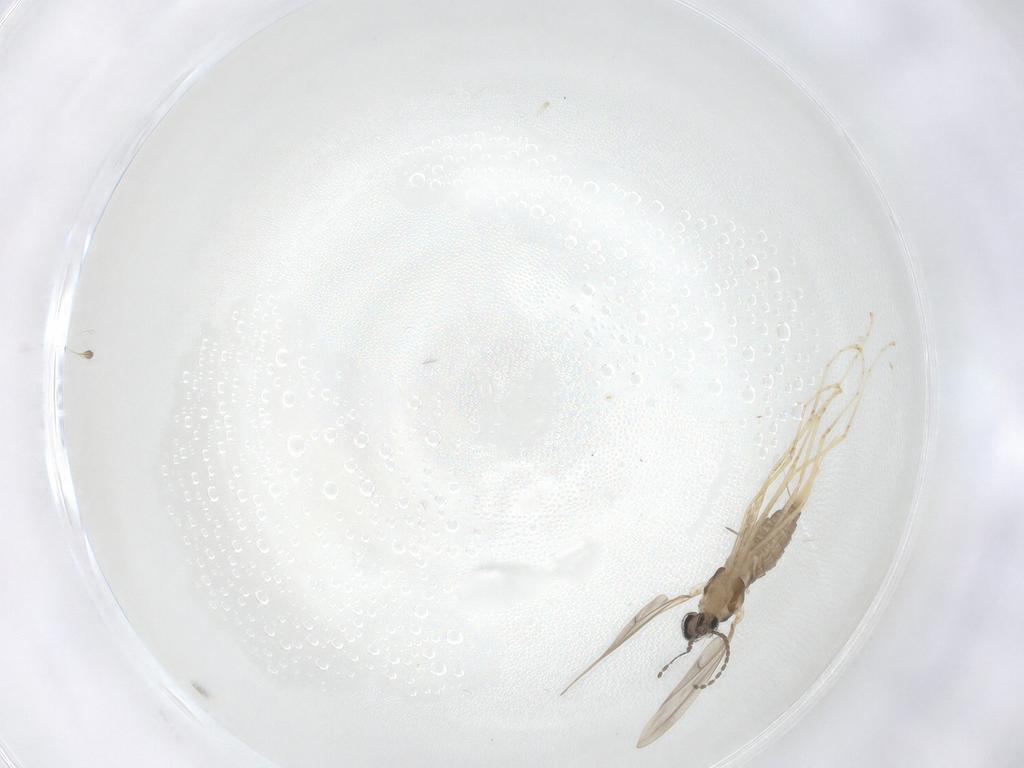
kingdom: Animalia
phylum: Arthropoda
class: Insecta
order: Diptera
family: Cecidomyiidae
